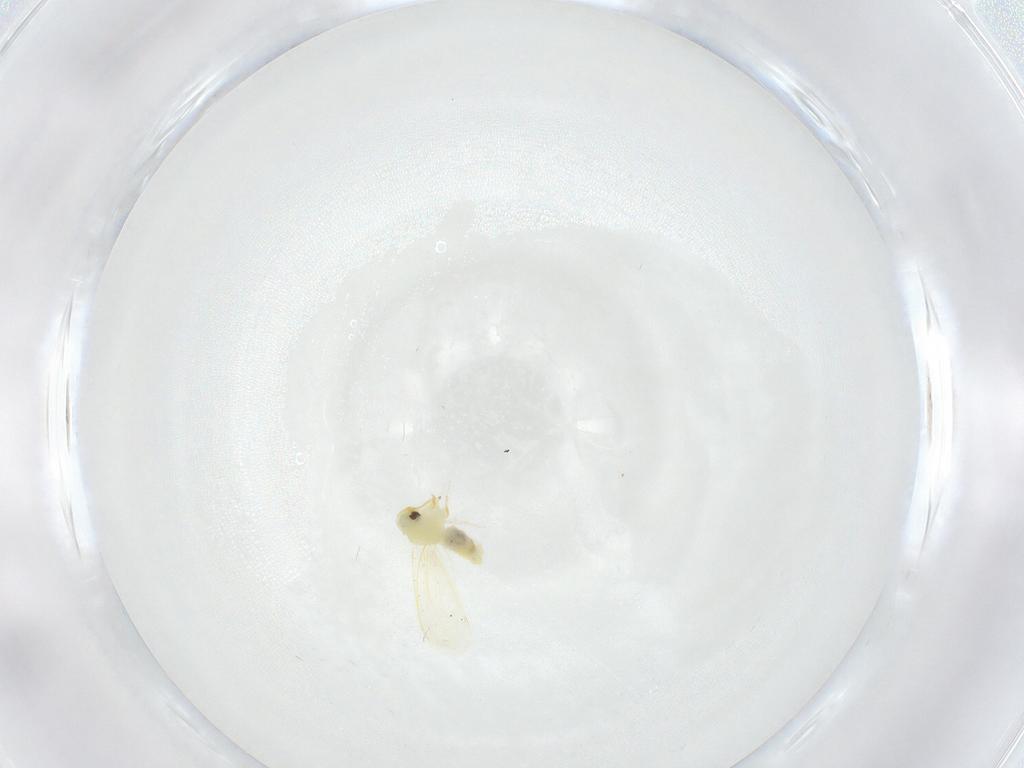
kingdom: Animalia
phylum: Arthropoda
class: Insecta
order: Hemiptera
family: Aleyrodidae
